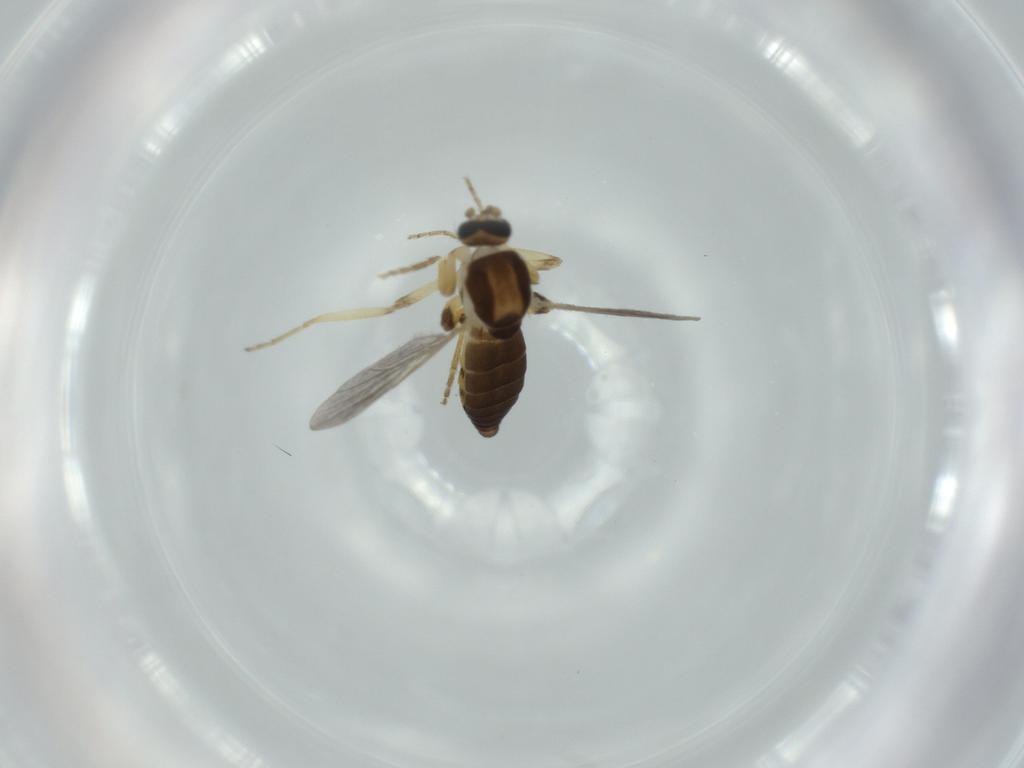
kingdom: Animalia
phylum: Arthropoda
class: Insecta
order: Diptera
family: Ceratopogonidae
